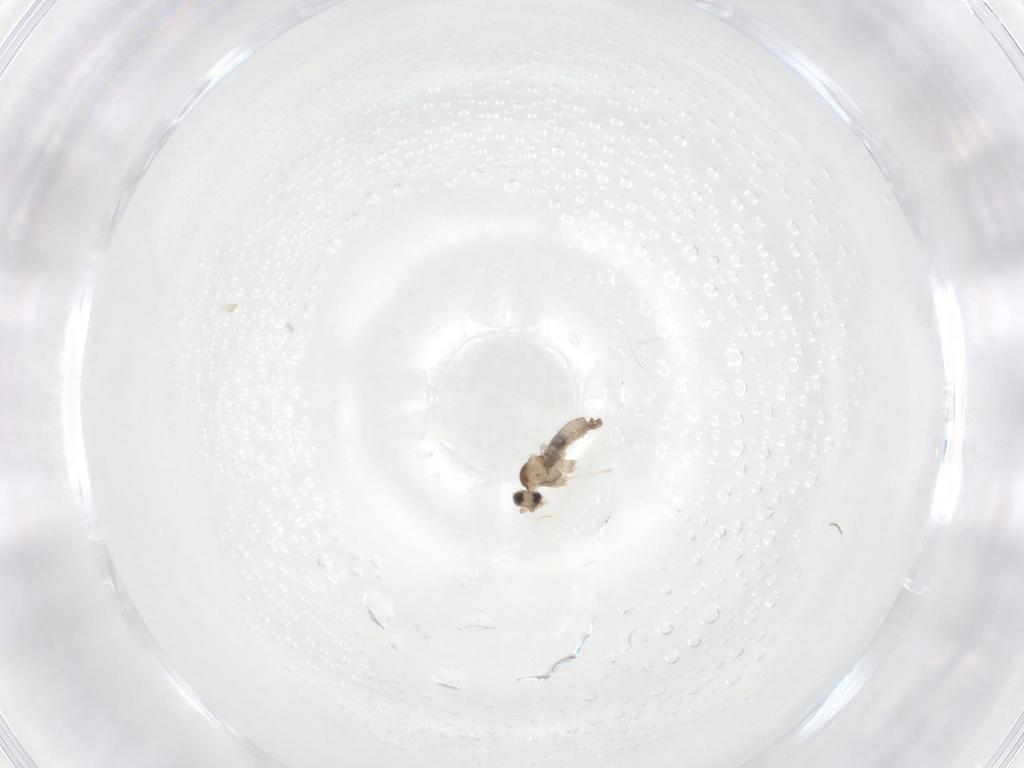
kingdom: Animalia
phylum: Arthropoda
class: Insecta
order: Diptera
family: Cecidomyiidae
